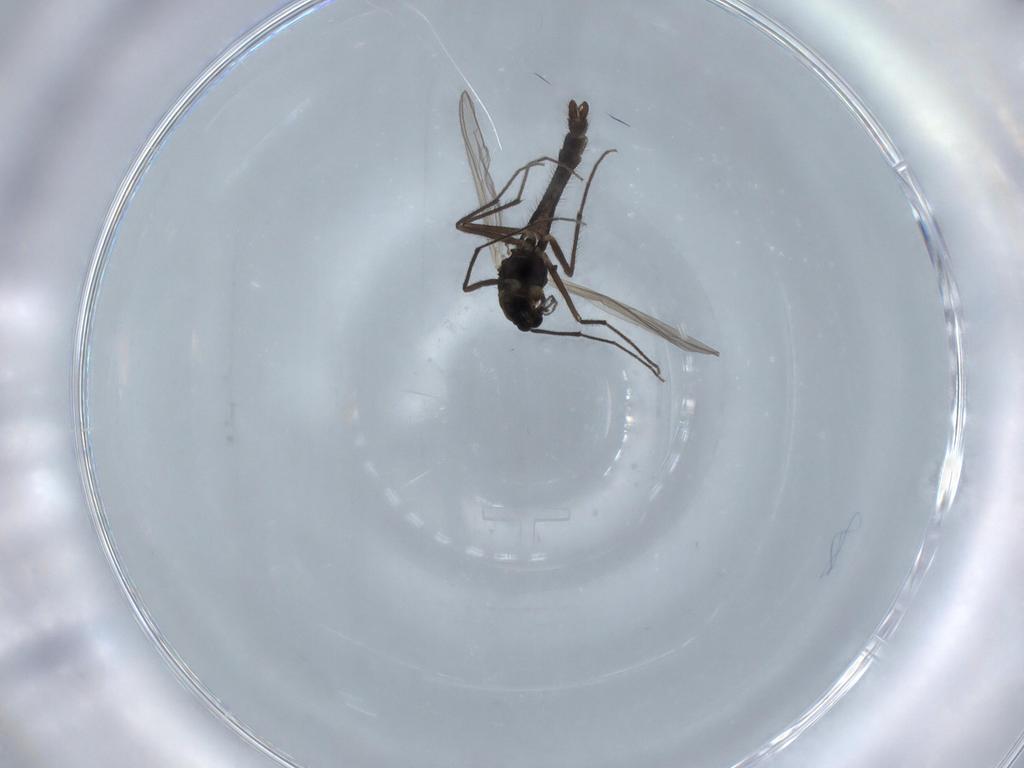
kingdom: Animalia
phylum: Arthropoda
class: Insecta
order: Diptera
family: Chironomidae
